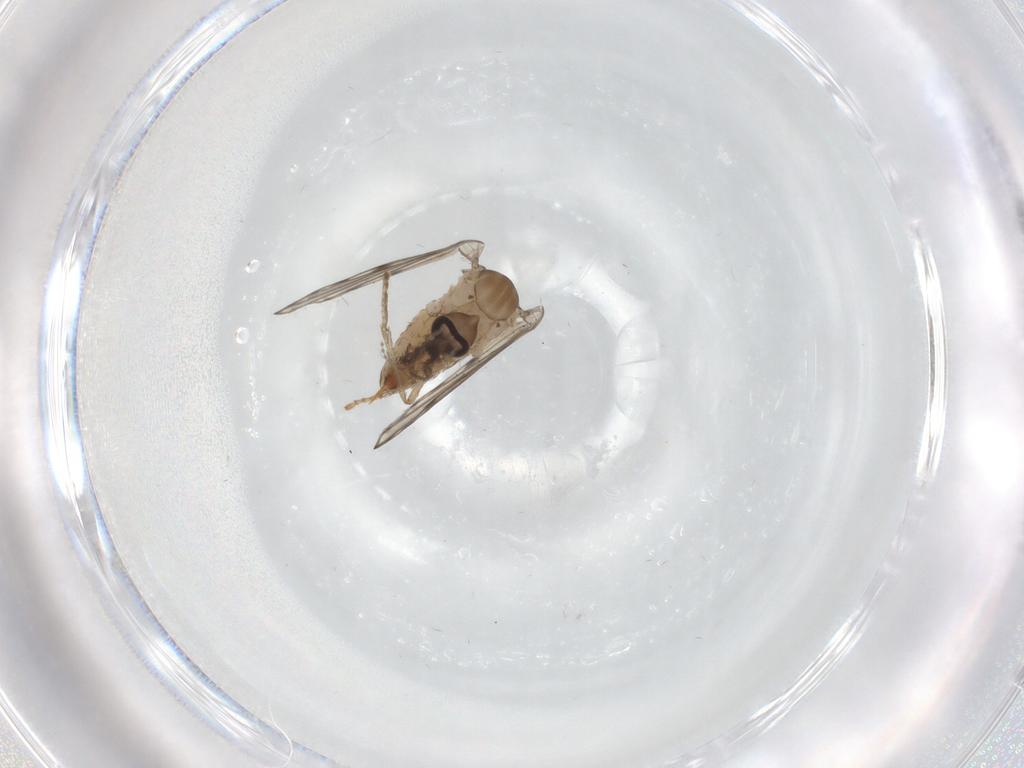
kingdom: Animalia
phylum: Arthropoda
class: Insecta
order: Diptera
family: Psychodidae
